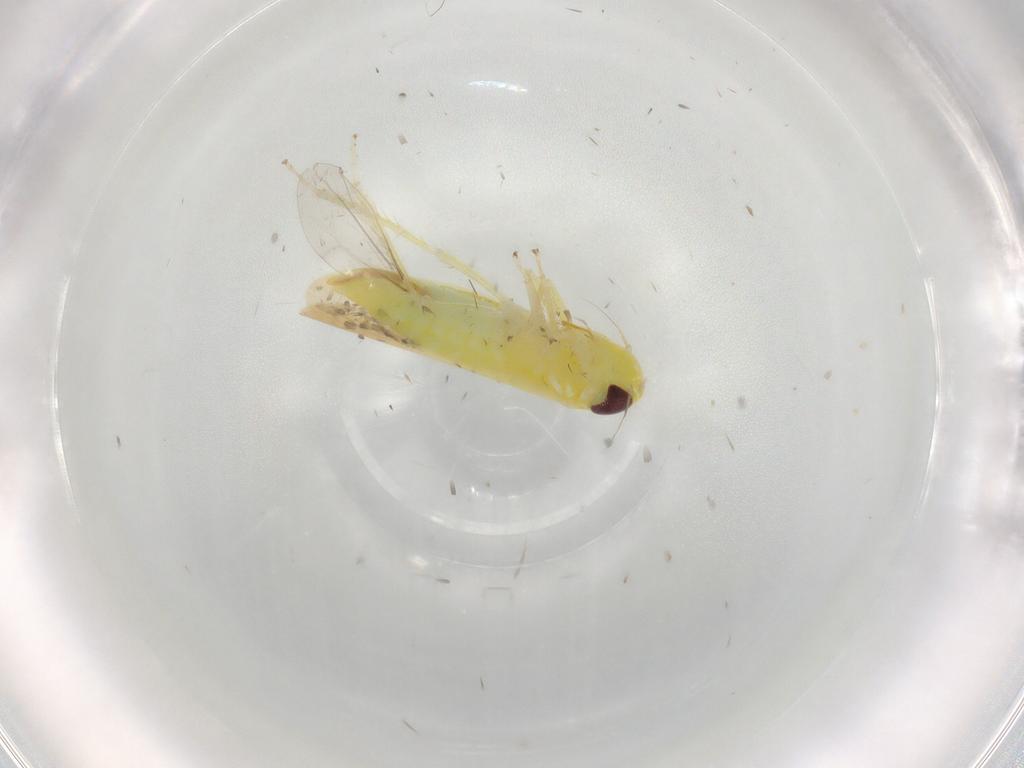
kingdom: Animalia
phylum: Arthropoda
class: Insecta
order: Hemiptera
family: Cicadellidae
